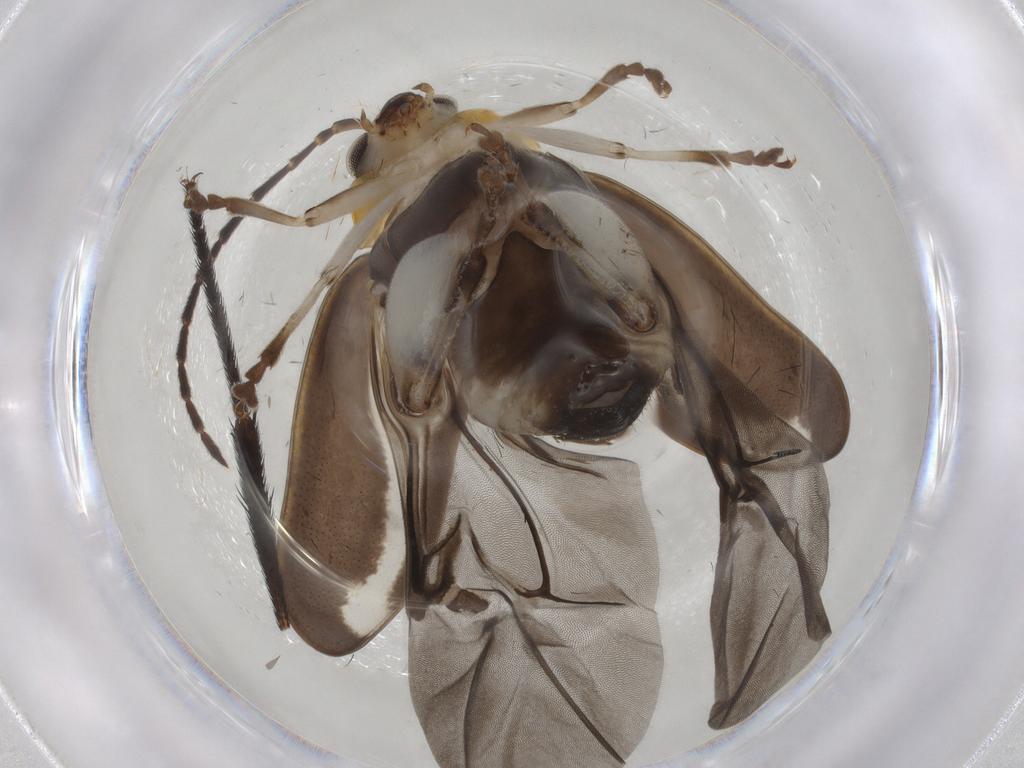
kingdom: Animalia
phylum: Arthropoda
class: Insecta
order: Coleoptera
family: Chrysomelidae
